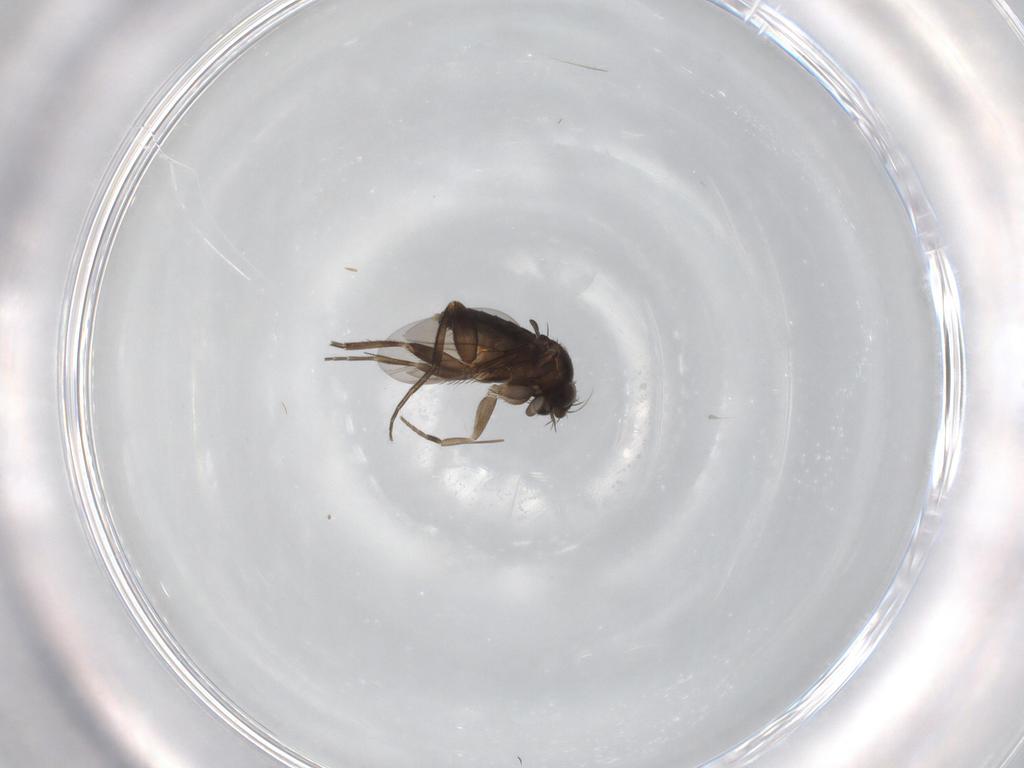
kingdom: Animalia
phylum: Arthropoda
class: Insecta
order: Diptera
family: Phoridae
